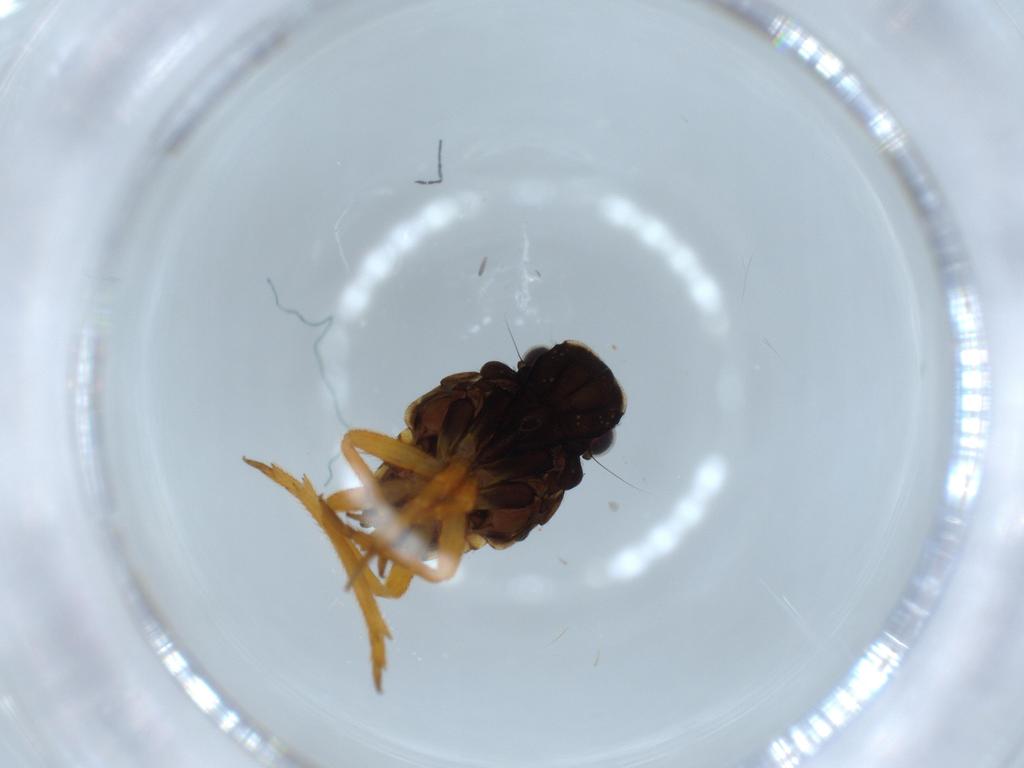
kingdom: Animalia
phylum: Arthropoda
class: Insecta
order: Hemiptera
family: Fulgoridae
